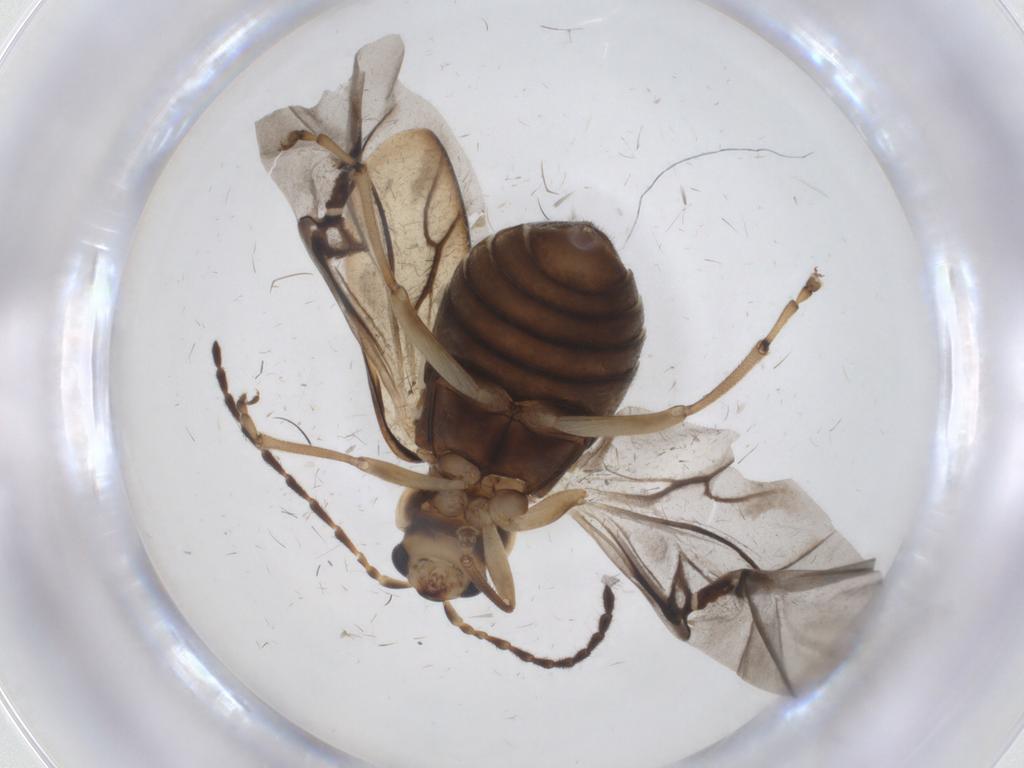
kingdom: Animalia
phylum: Arthropoda
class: Insecta
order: Coleoptera
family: Chrysomelidae
